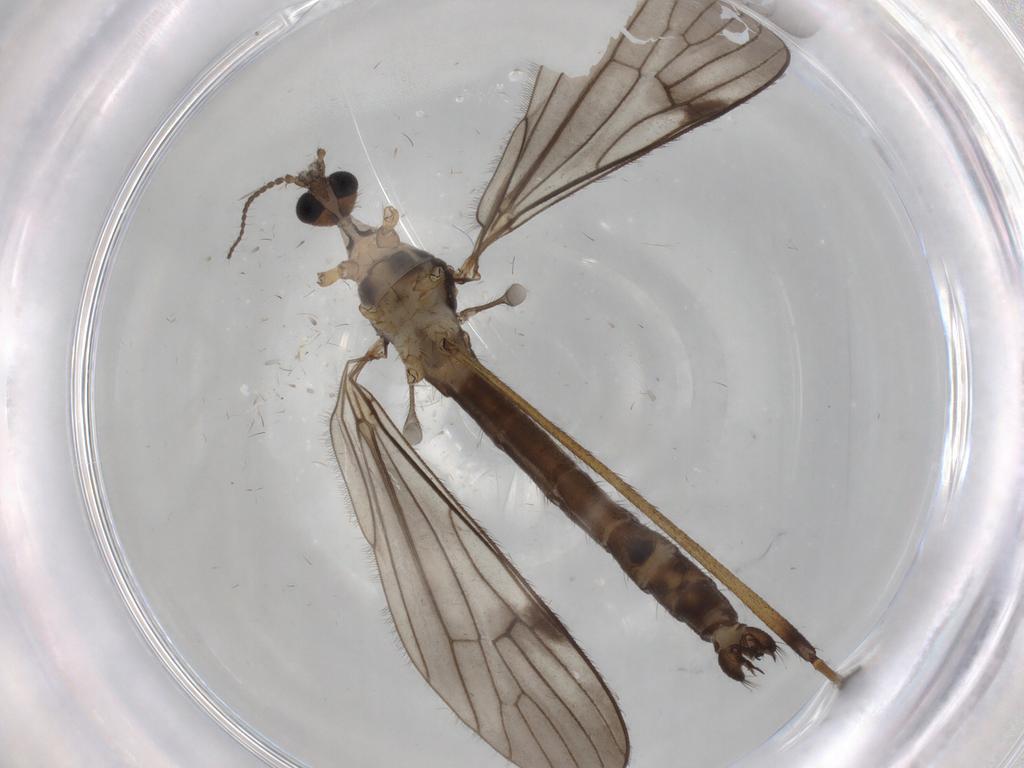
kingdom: Animalia
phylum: Arthropoda
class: Insecta
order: Diptera
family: Limoniidae
